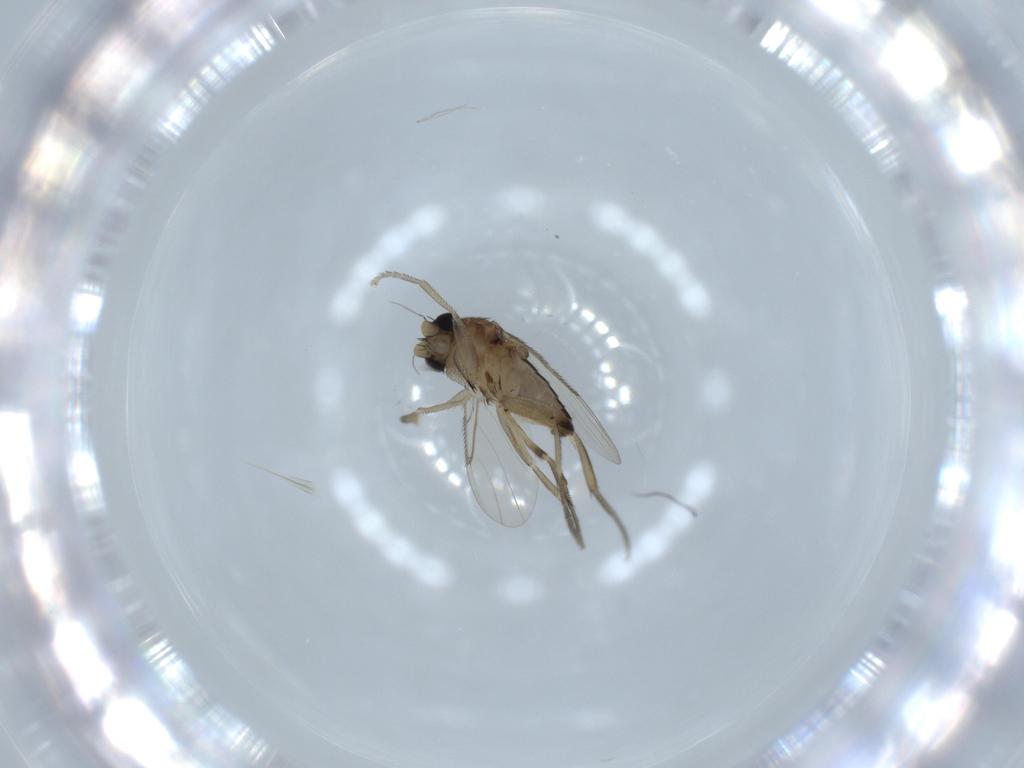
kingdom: Animalia
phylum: Arthropoda
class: Insecta
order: Diptera
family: Phoridae
